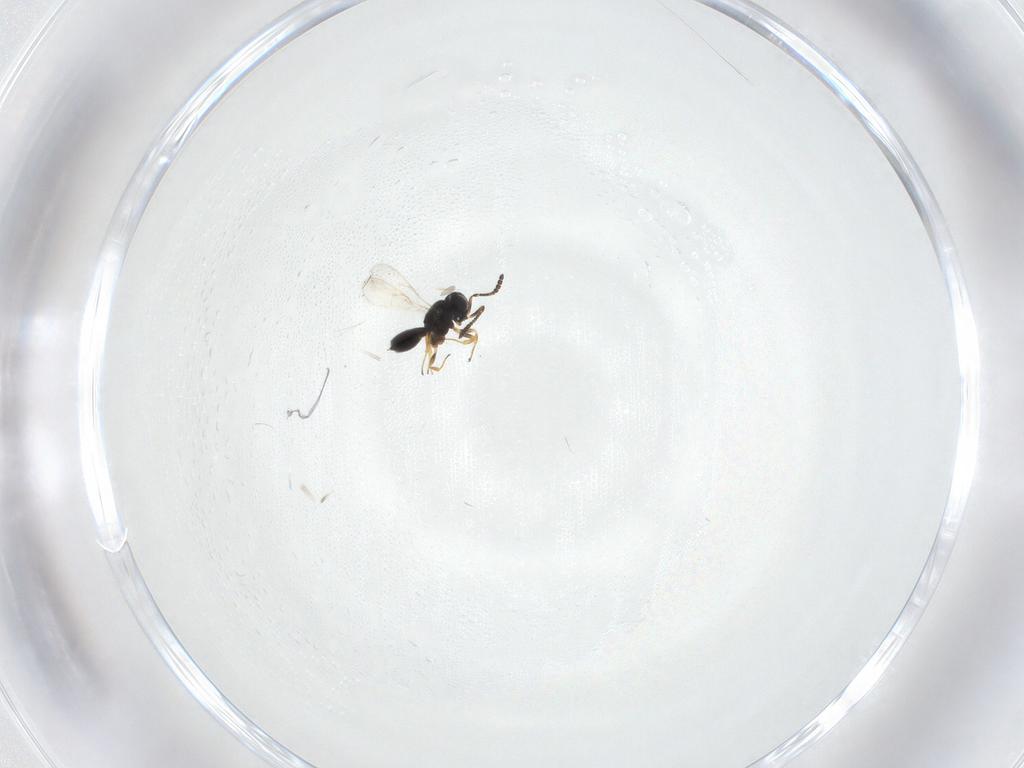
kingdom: Animalia
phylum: Arthropoda
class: Insecta
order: Hymenoptera
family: Scelionidae
